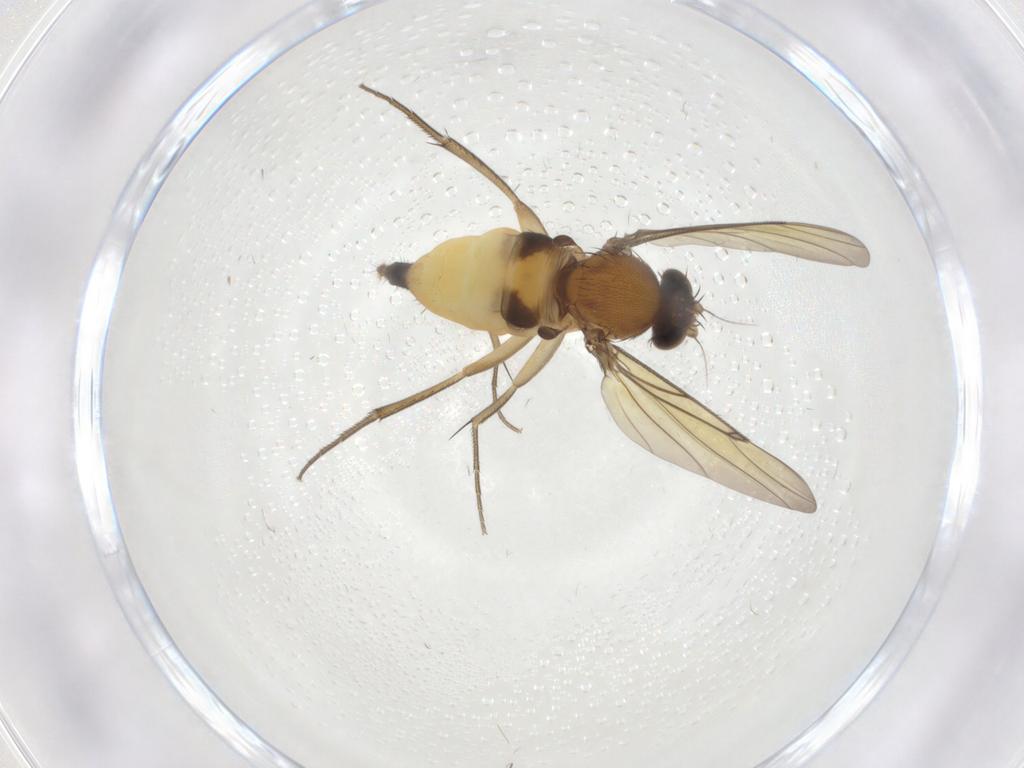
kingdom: Animalia
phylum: Arthropoda
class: Insecta
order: Diptera
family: Phoridae
